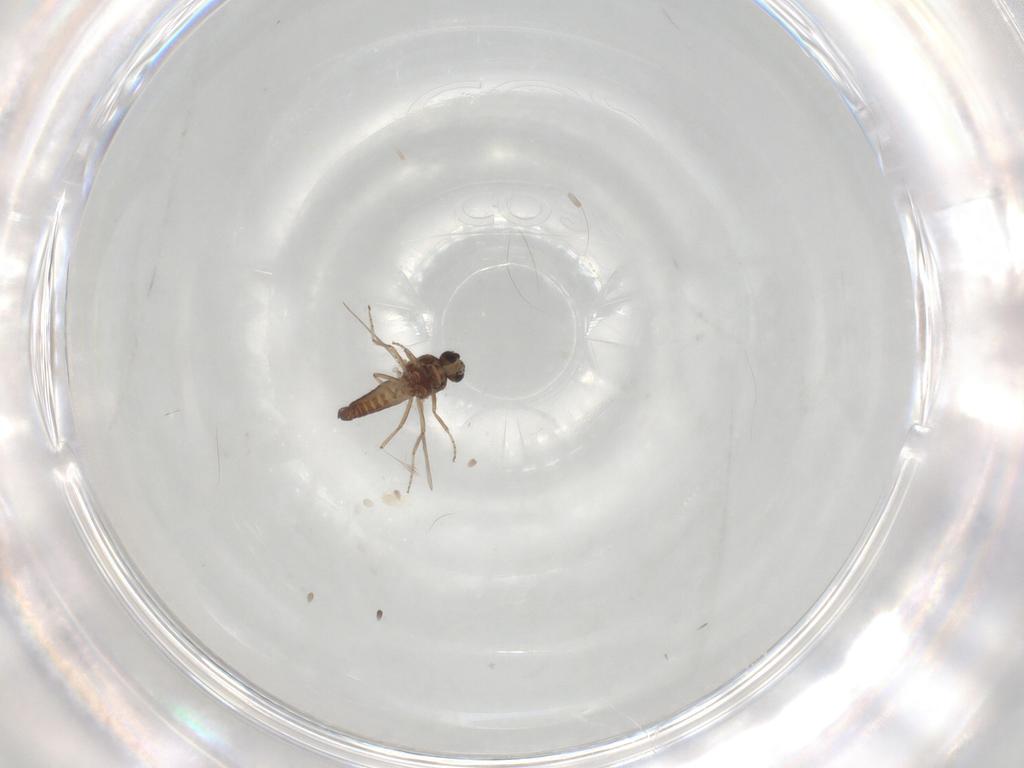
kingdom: Animalia
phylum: Arthropoda
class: Insecta
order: Diptera
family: Ceratopogonidae
